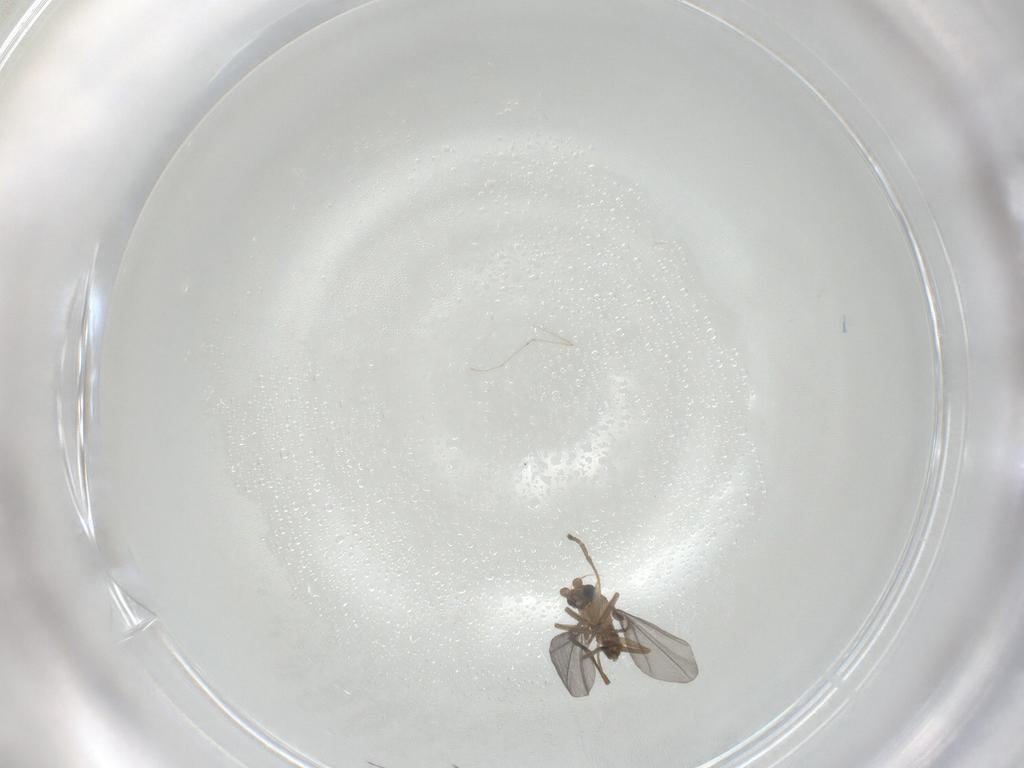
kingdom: Animalia
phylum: Arthropoda
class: Insecta
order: Diptera
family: Phoridae
